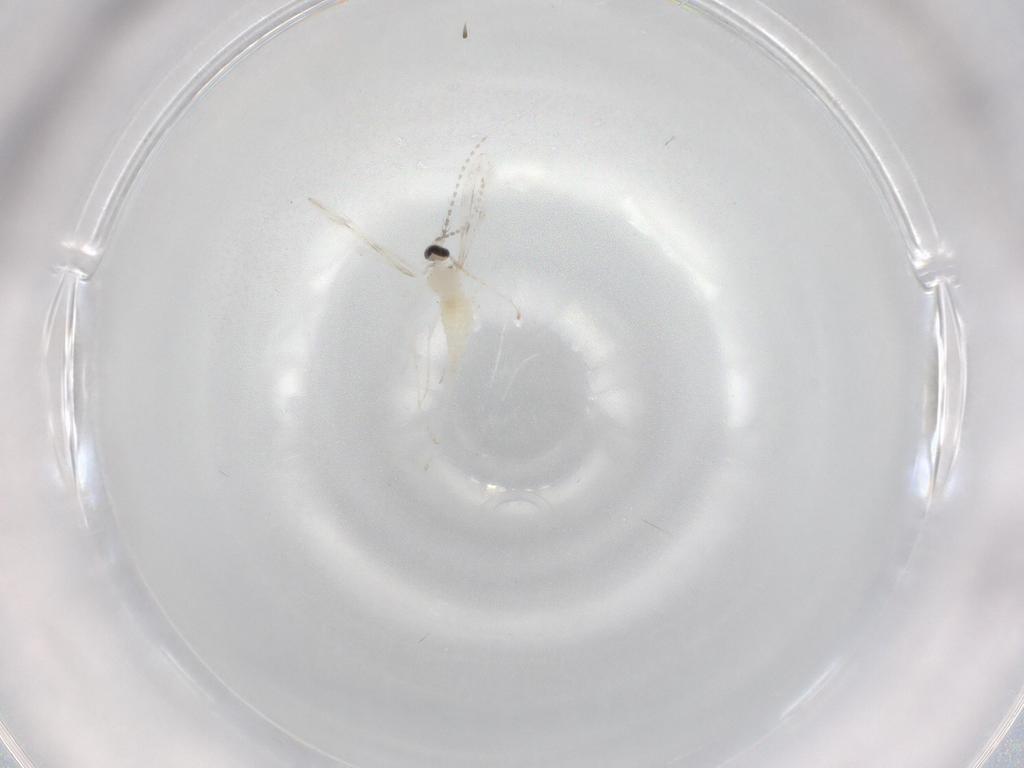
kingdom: Animalia
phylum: Arthropoda
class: Insecta
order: Diptera
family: Cecidomyiidae
